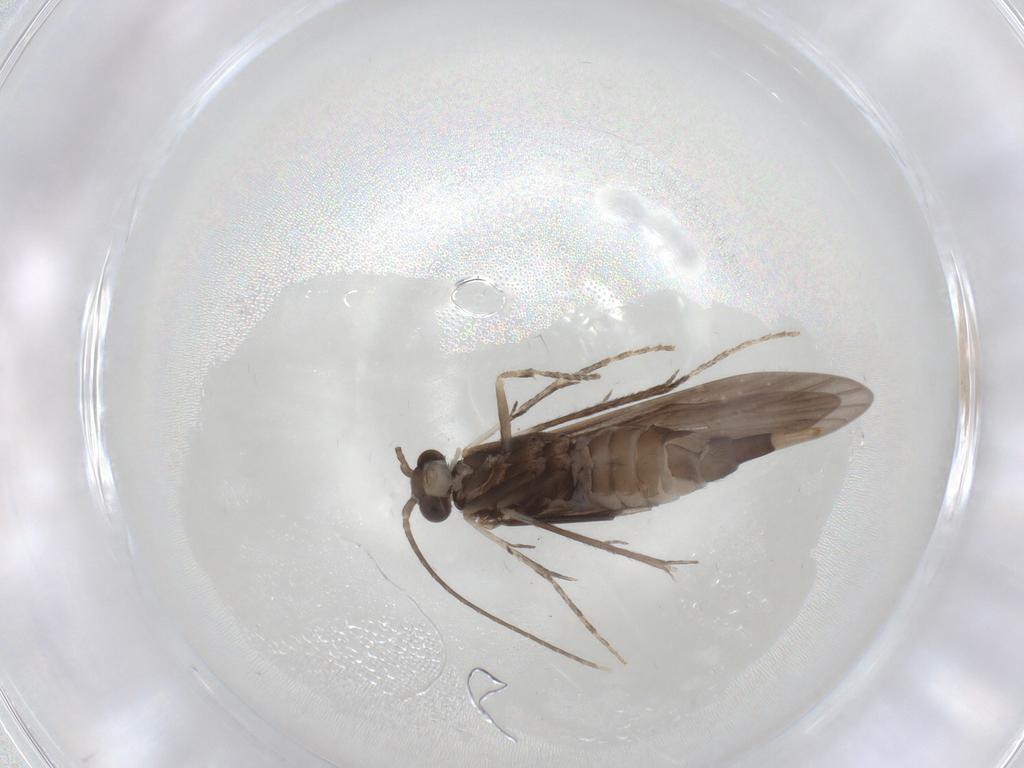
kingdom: Animalia
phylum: Arthropoda
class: Insecta
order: Trichoptera
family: Xiphocentronidae
